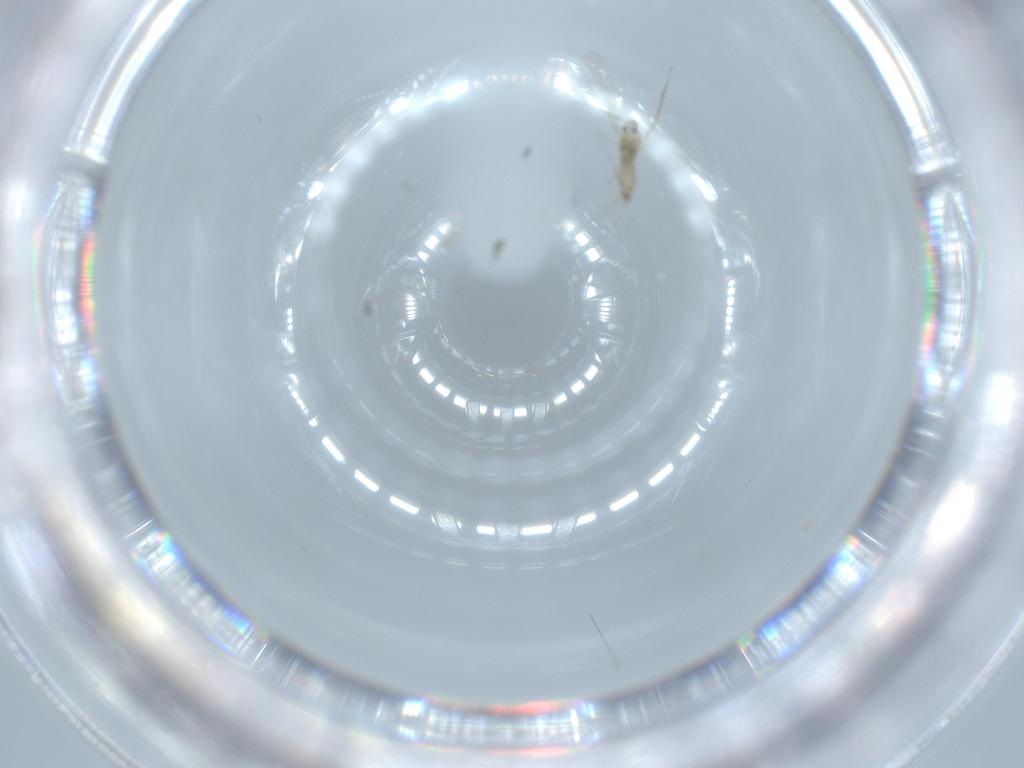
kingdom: Animalia
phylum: Arthropoda
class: Insecta
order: Diptera
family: Cecidomyiidae
